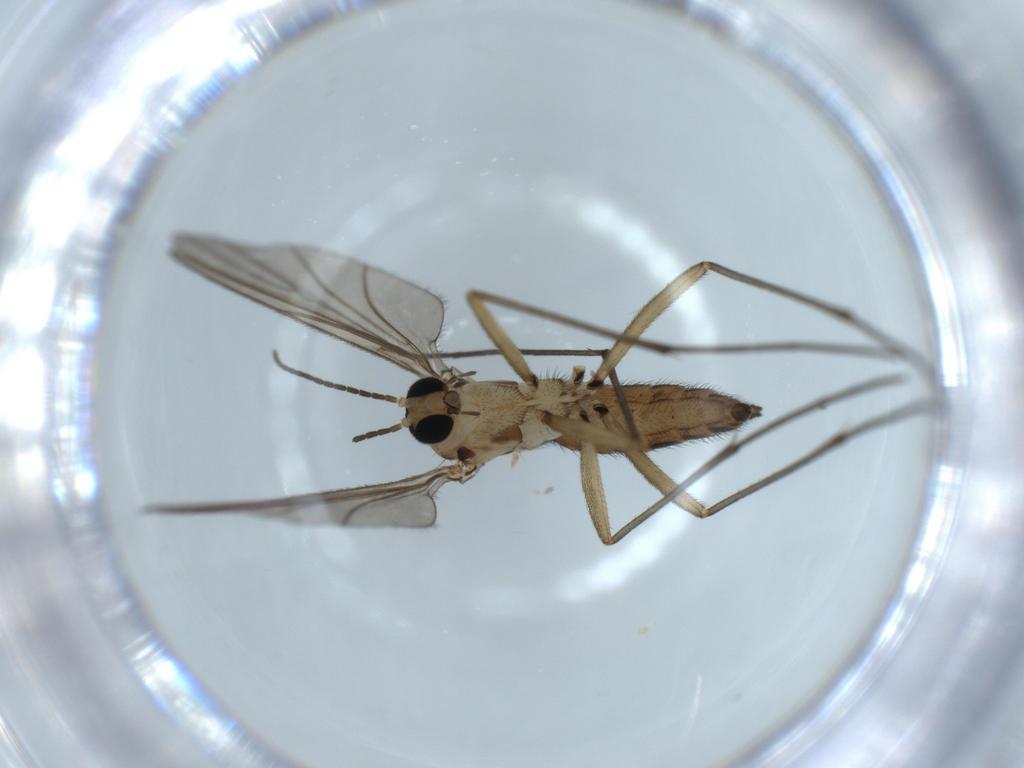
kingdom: Animalia
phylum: Arthropoda
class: Insecta
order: Diptera
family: Sciaridae
